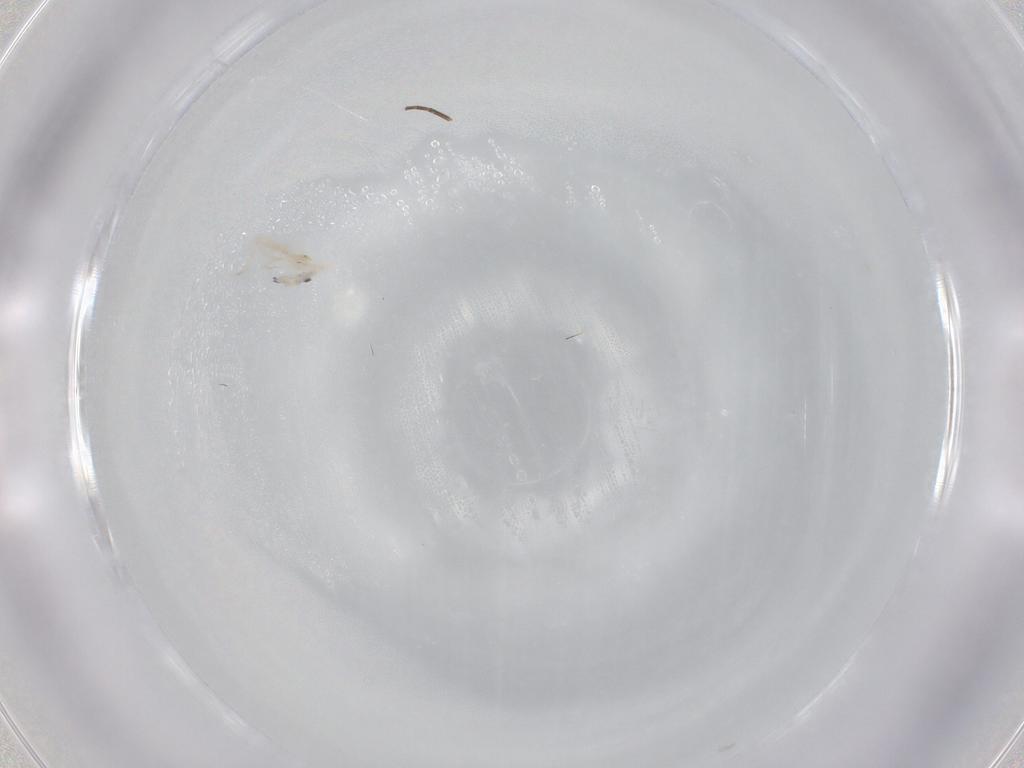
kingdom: Animalia
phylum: Arthropoda
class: Collembola
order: Entomobryomorpha
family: Entomobryidae
